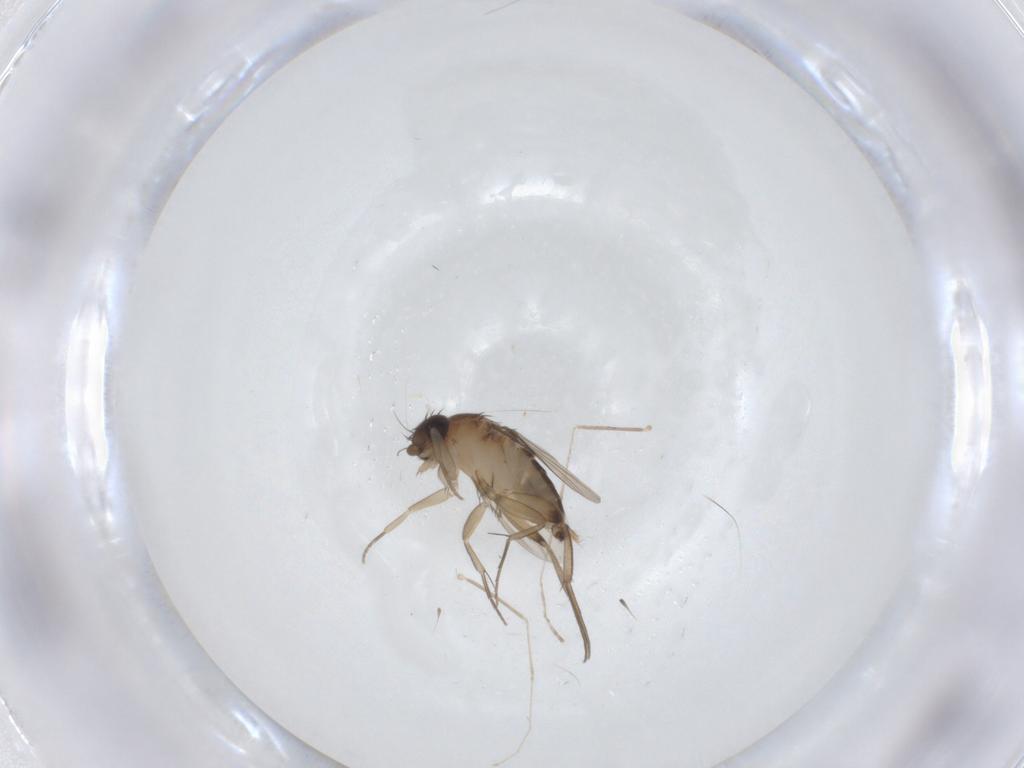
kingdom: Animalia
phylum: Arthropoda
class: Insecta
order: Diptera
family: Phoridae
